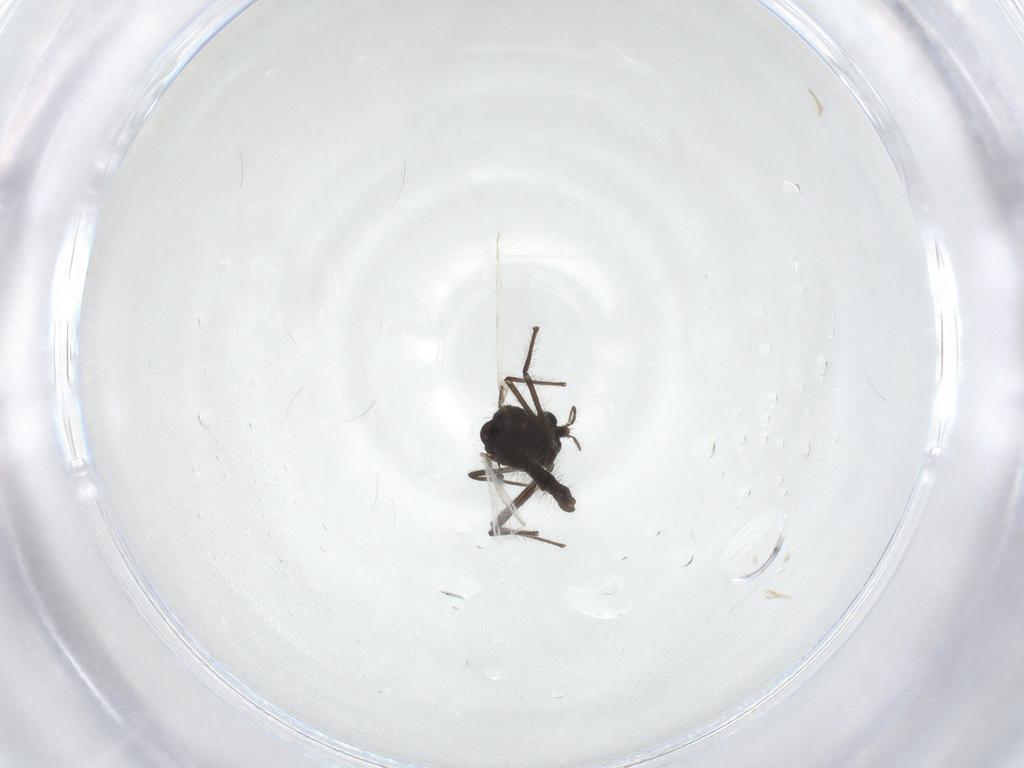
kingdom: Animalia
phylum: Arthropoda
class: Insecta
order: Diptera
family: Chironomidae
